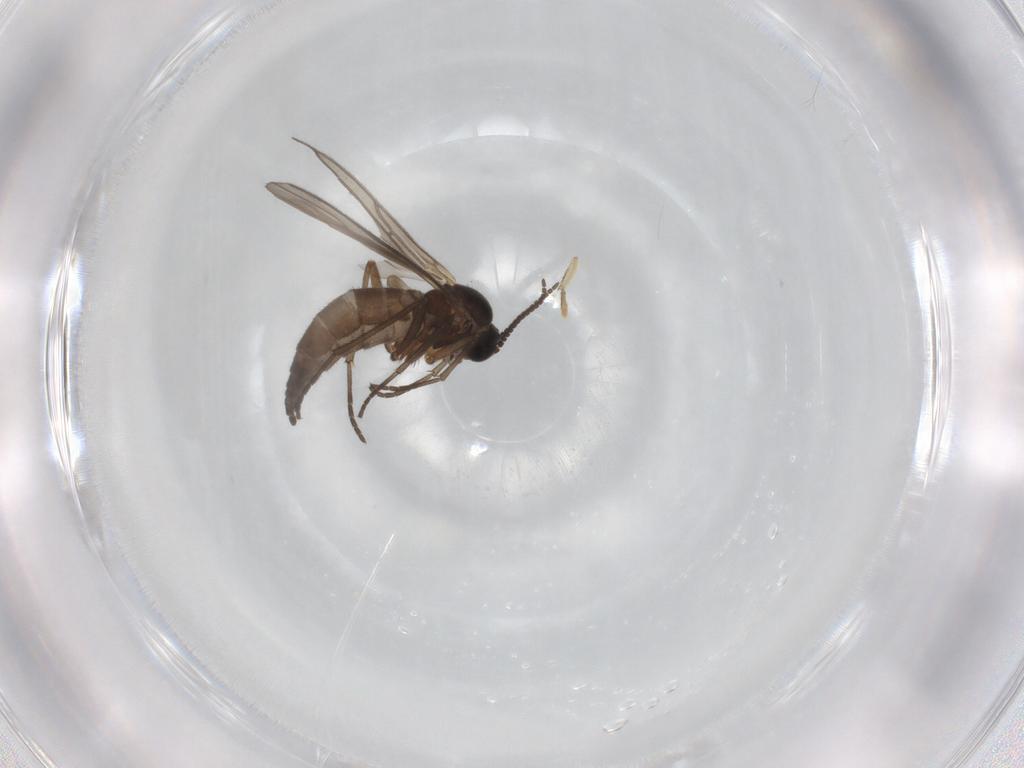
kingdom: Animalia
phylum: Arthropoda
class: Insecta
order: Diptera
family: Sciaridae
